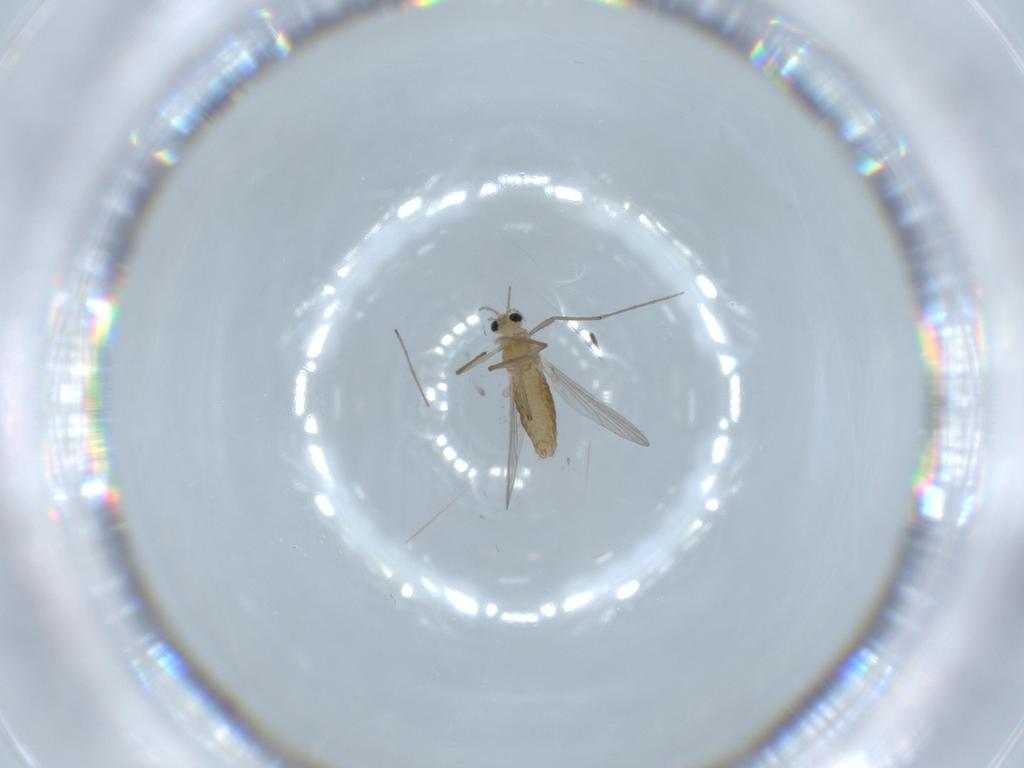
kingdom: Animalia
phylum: Arthropoda
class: Insecta
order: Diptera
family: Chironomidae
